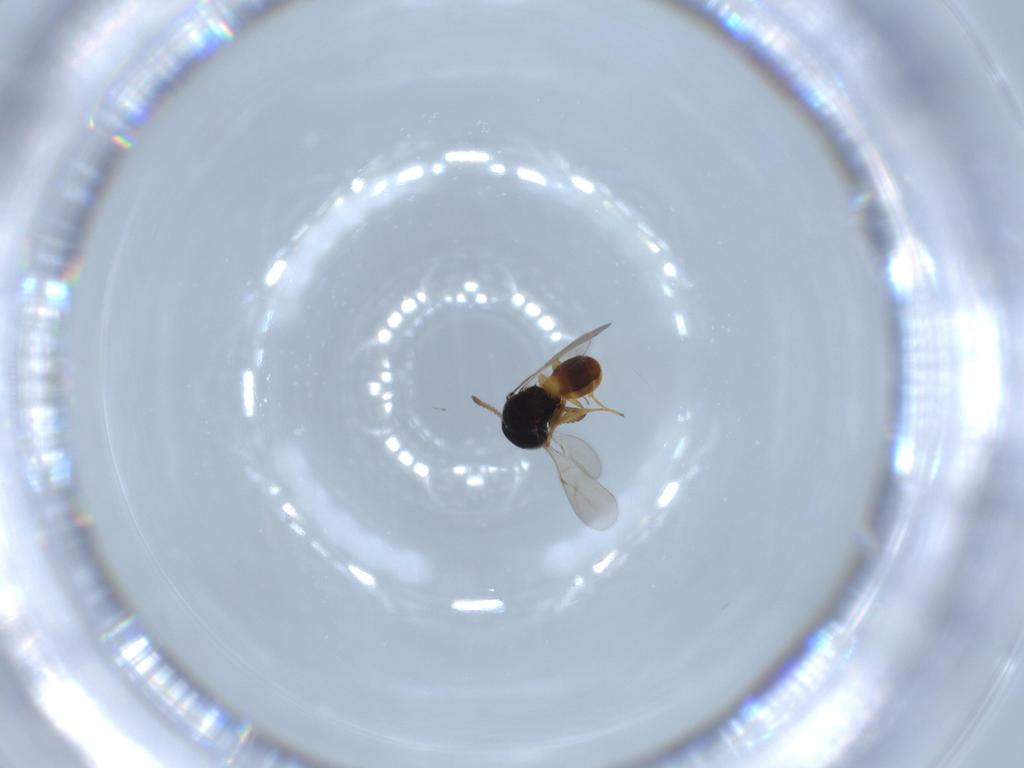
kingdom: Animalia
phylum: Arthropoda
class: Insecta
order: Hymenoptera
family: Scelionidae
